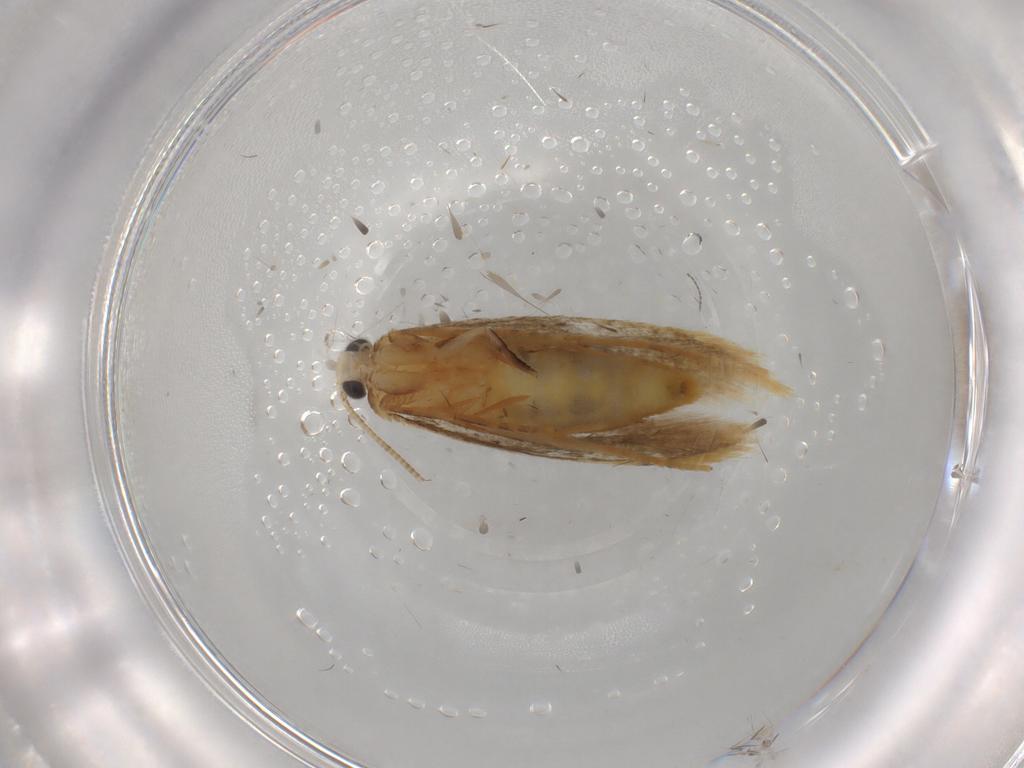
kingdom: Animalia
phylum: Arthropoda
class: Insecta
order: Lepidoptera
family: Tineidae
